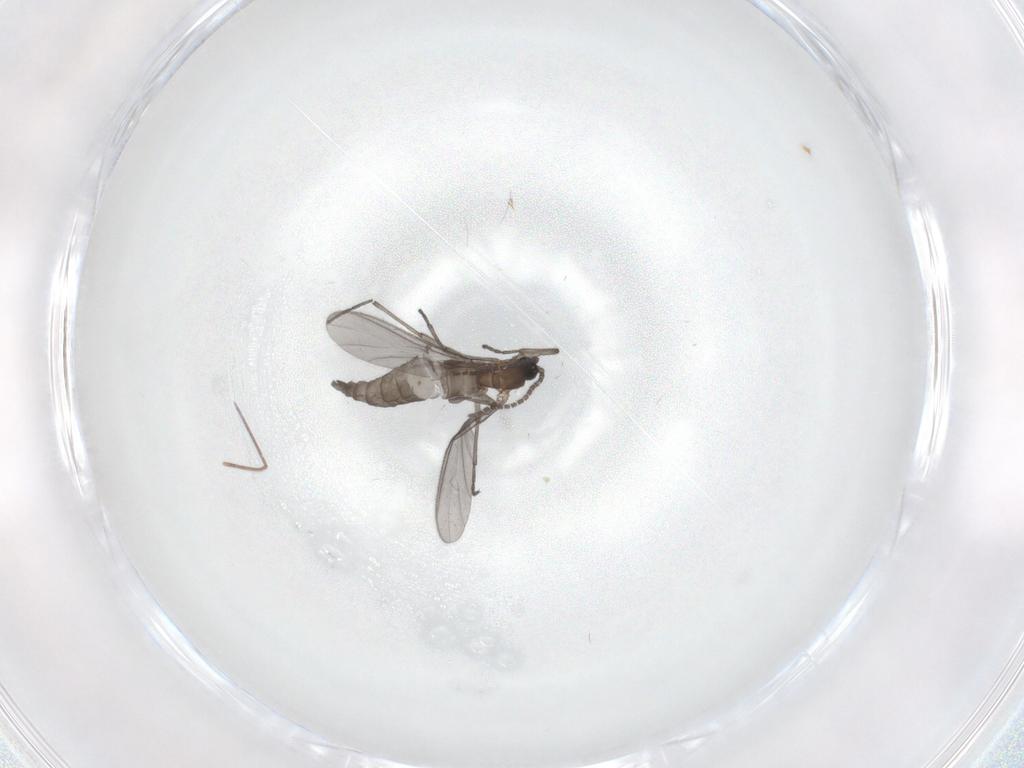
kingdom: Animalia
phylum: Arthropoda
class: Insecta
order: Diptera
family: Sciaridae
